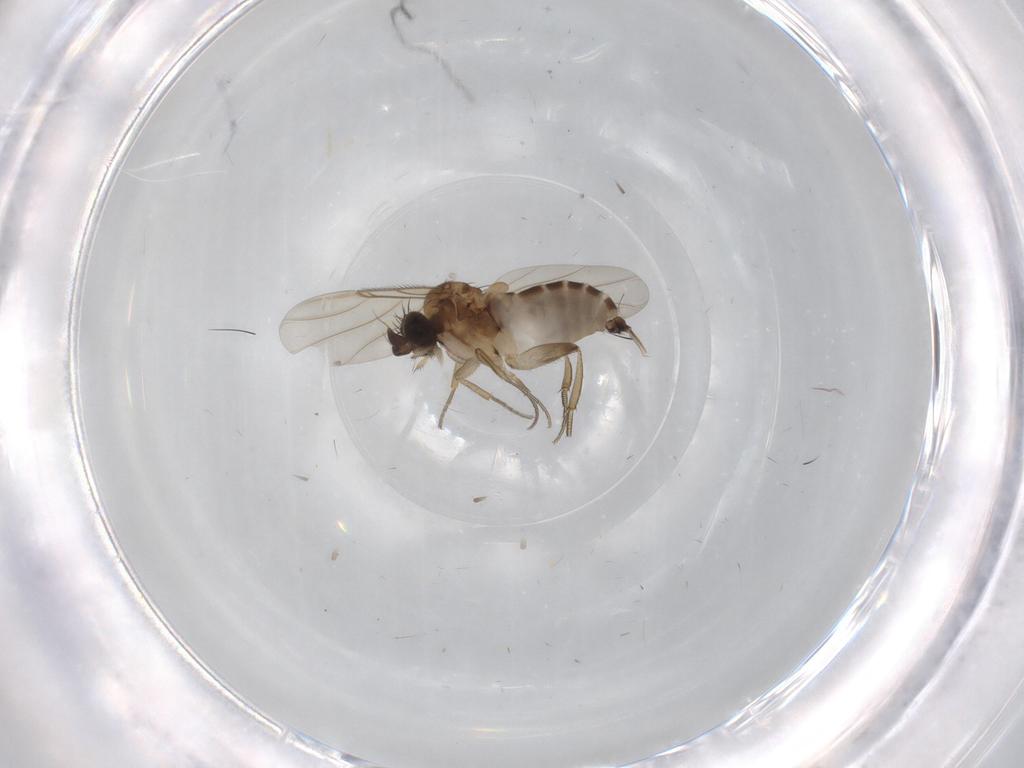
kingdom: Animalia
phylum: Arthropoda
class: Insecta
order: Diptera
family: Phoridae
